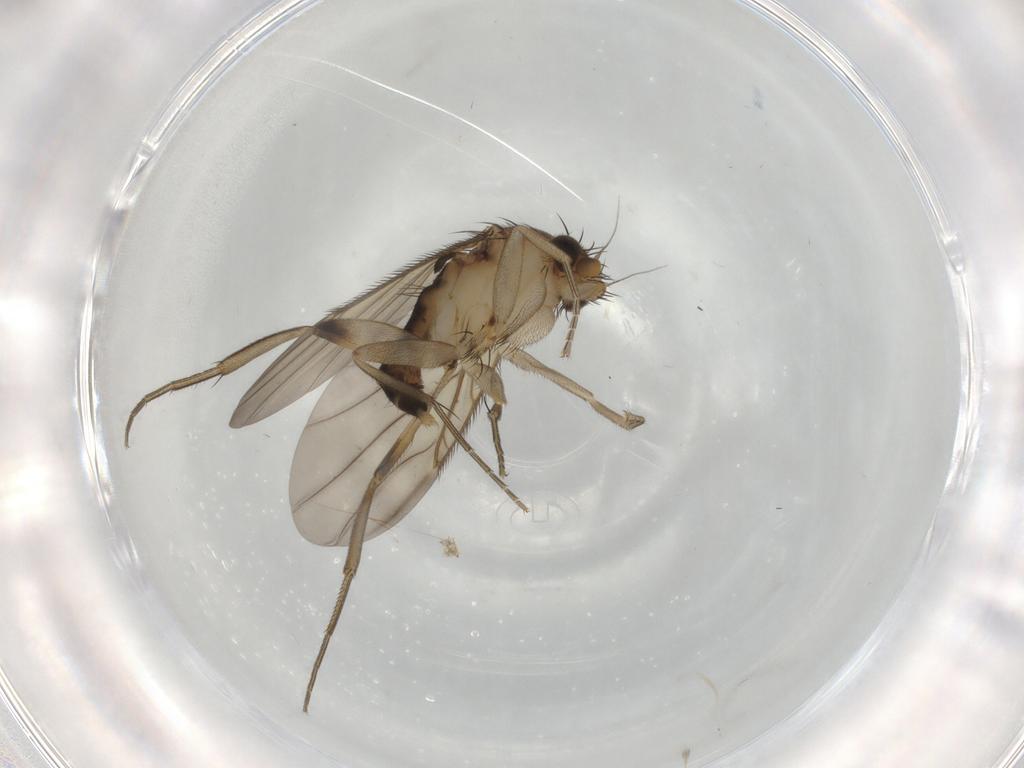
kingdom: Animalia
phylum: Arthropoda
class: Insecta
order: Diptera
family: Phoridae
